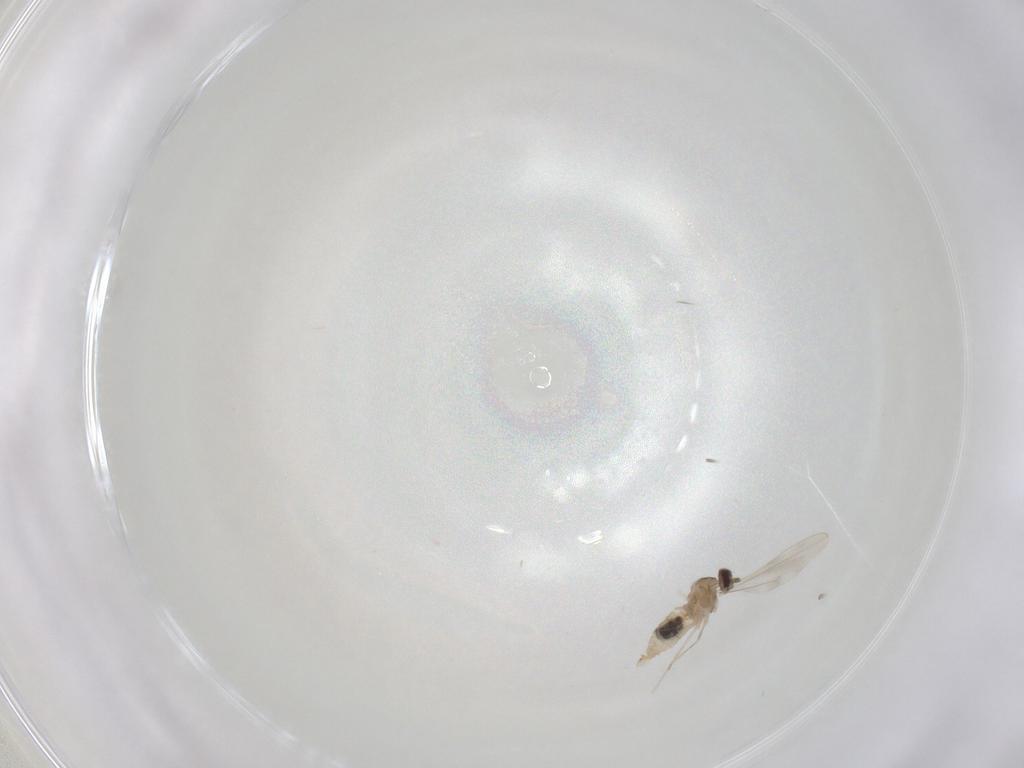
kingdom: Animalia
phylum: Arthropoda
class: Insecta
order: Diptera
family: Cecidomyiidae
